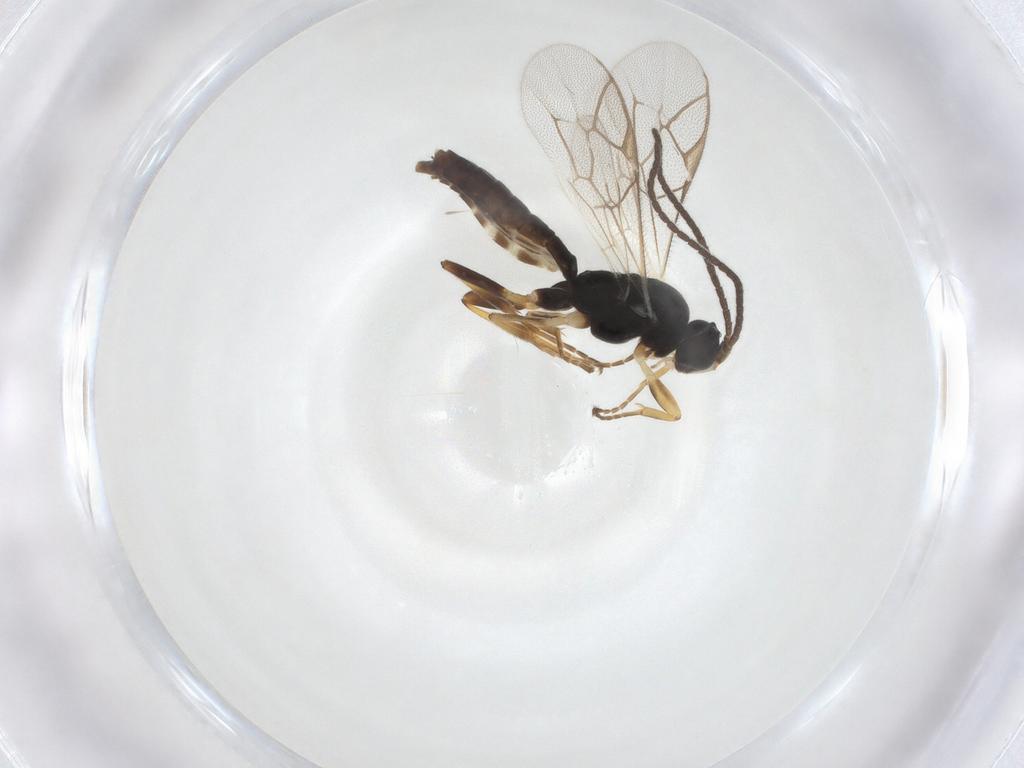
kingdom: Animalia
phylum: Arthropoda
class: Insecta
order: Hymenoptera
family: Ichneumonidae
